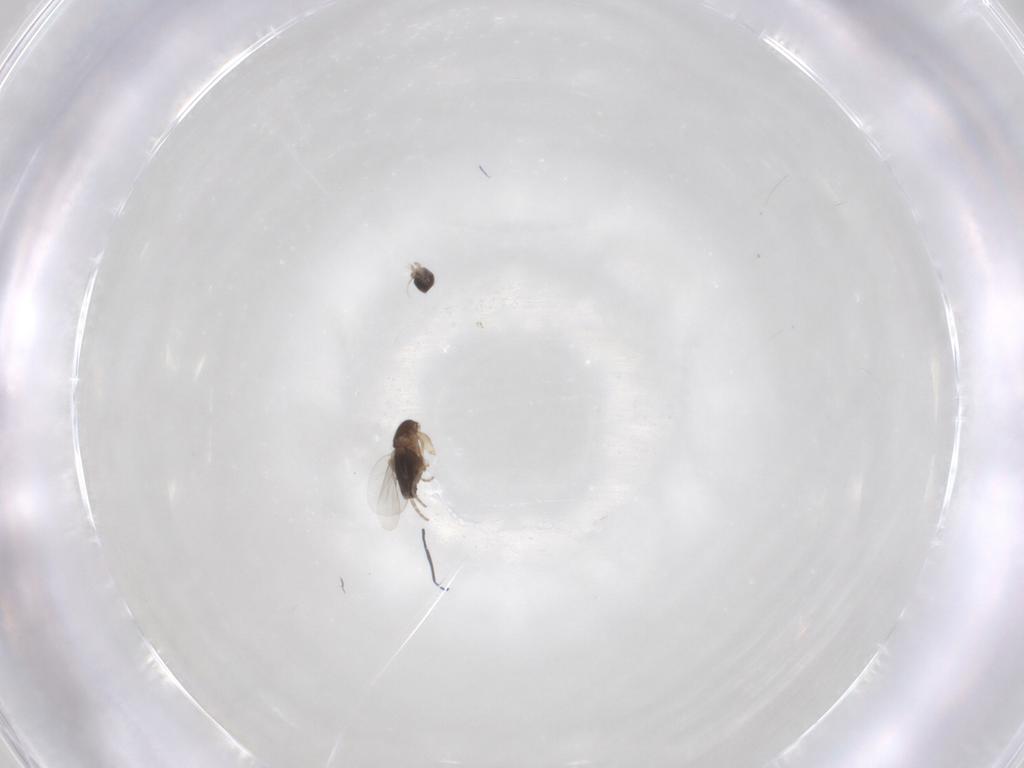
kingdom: Animalia
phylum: Arthropoda
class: Insecta
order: Diptera
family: Phoridae
